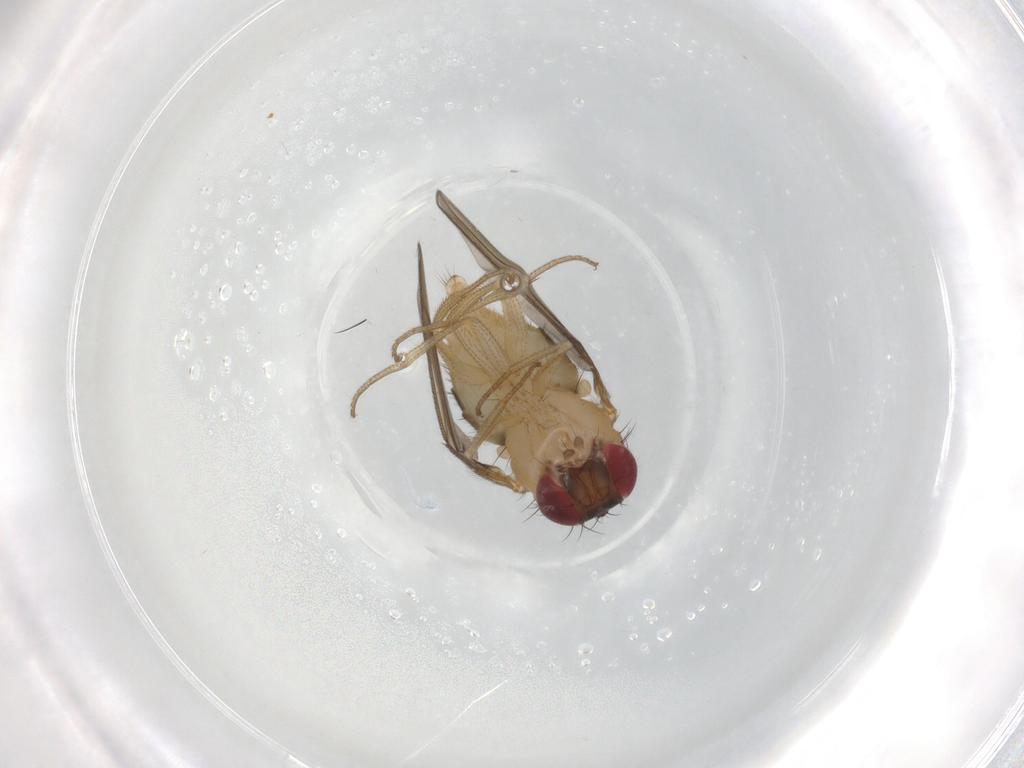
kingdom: Animalia
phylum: Arthropoda
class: Insecta
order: Diptera
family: Drosophilidae
